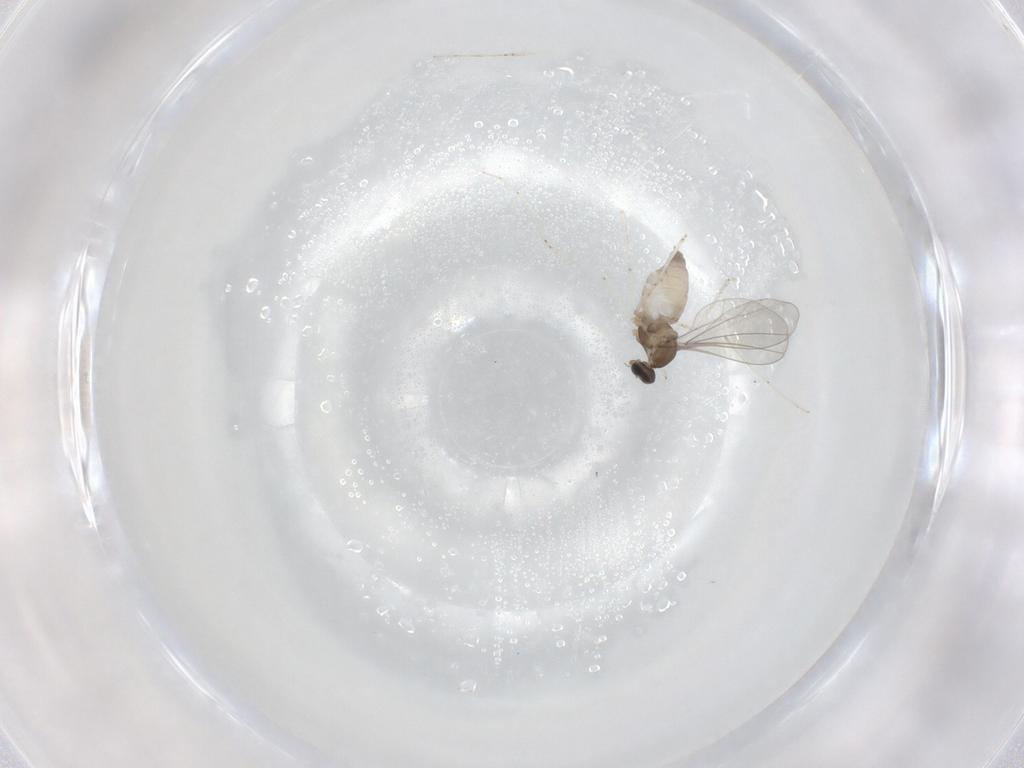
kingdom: Animalia
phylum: Arthropoda
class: Insecta
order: Diptera
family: Cecidomyiidae
